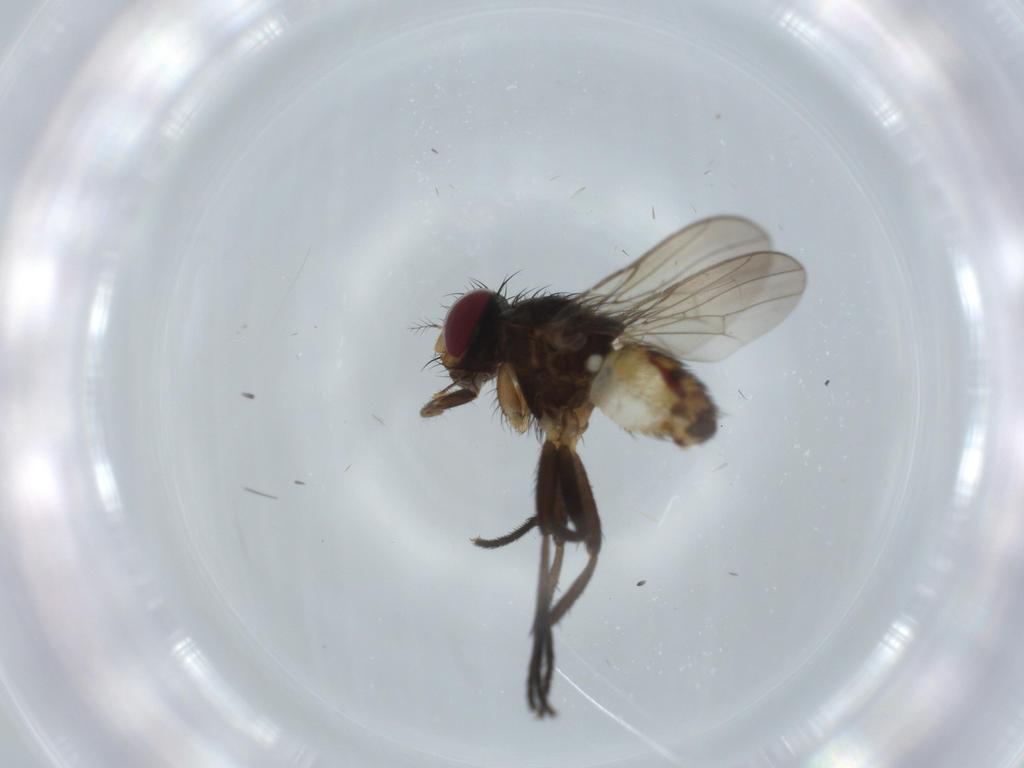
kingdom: Animalia
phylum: Arthropoda
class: Insecta
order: Diptera
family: Anthomyiidae
